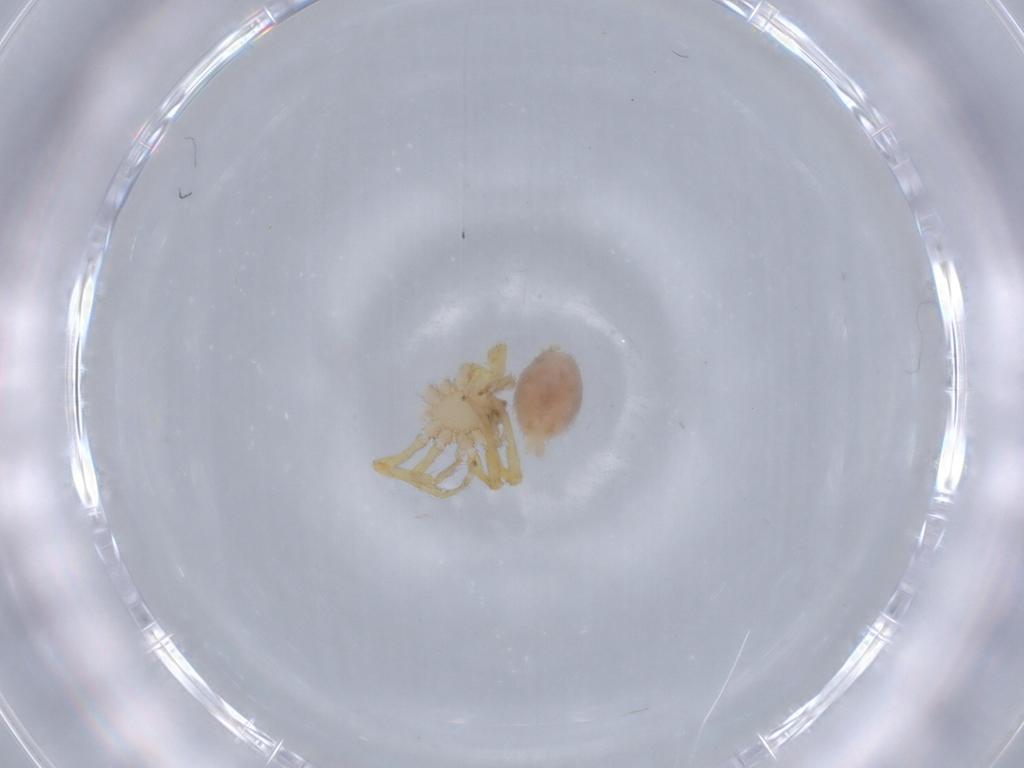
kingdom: Animalia
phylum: Arthropoda
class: Arachnida
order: Araneae
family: Oonopidae
